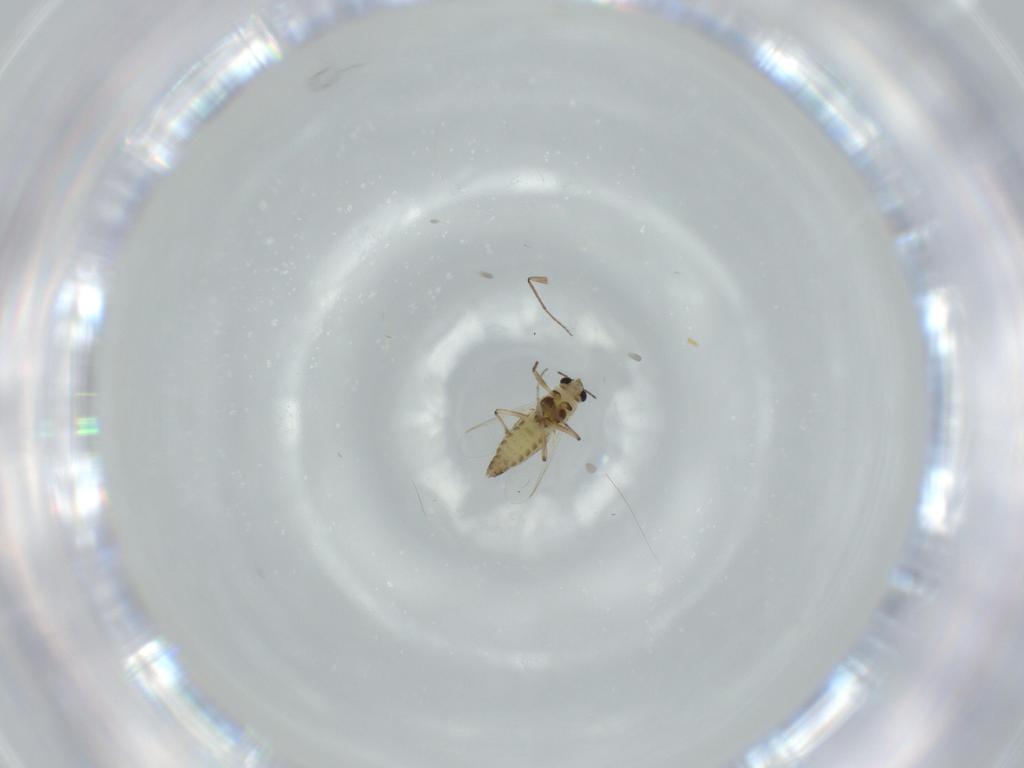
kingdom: Animalia
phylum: Arthropoda
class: Insecta
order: Diptera
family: Chironomidae
